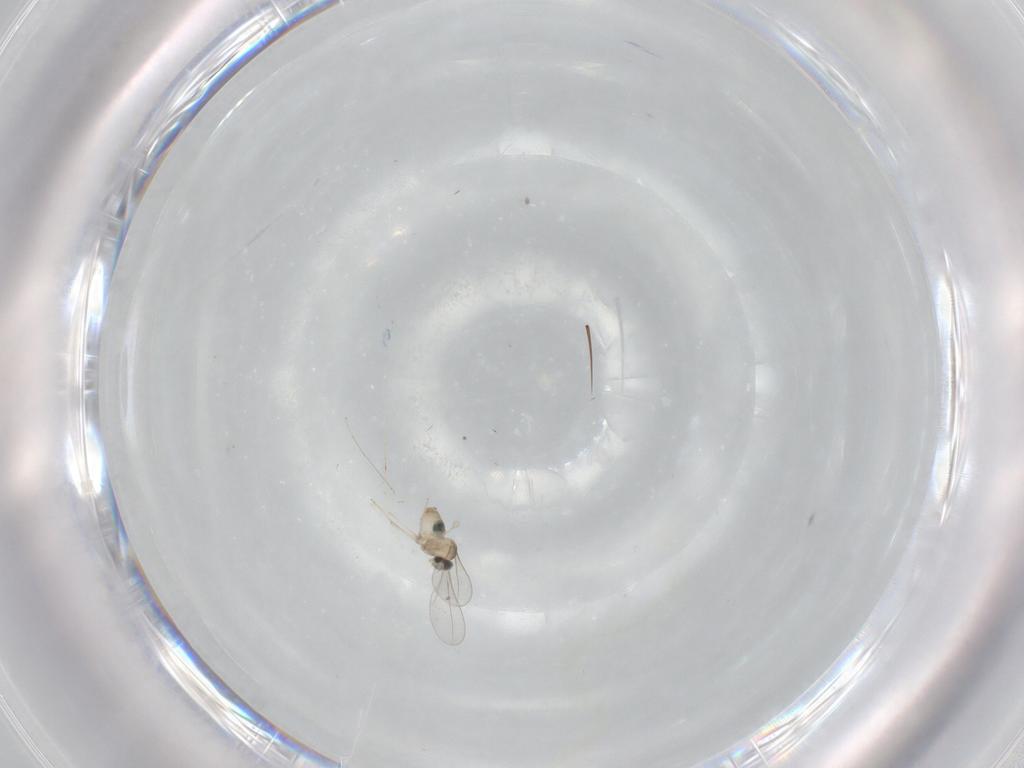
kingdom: Animalia
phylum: Arthropoda
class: Insecta
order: Diptera
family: Cecidomyiidae
